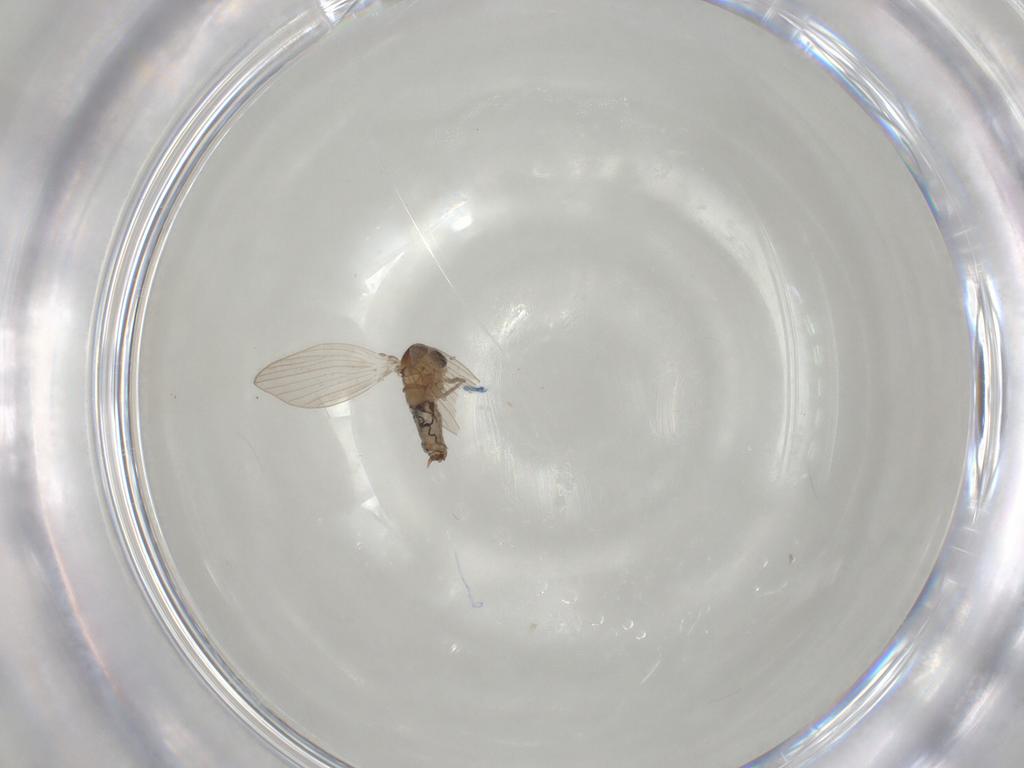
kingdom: Animalia
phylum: Arthropoda
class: Insecta
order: Diptera
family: Psychodidae
